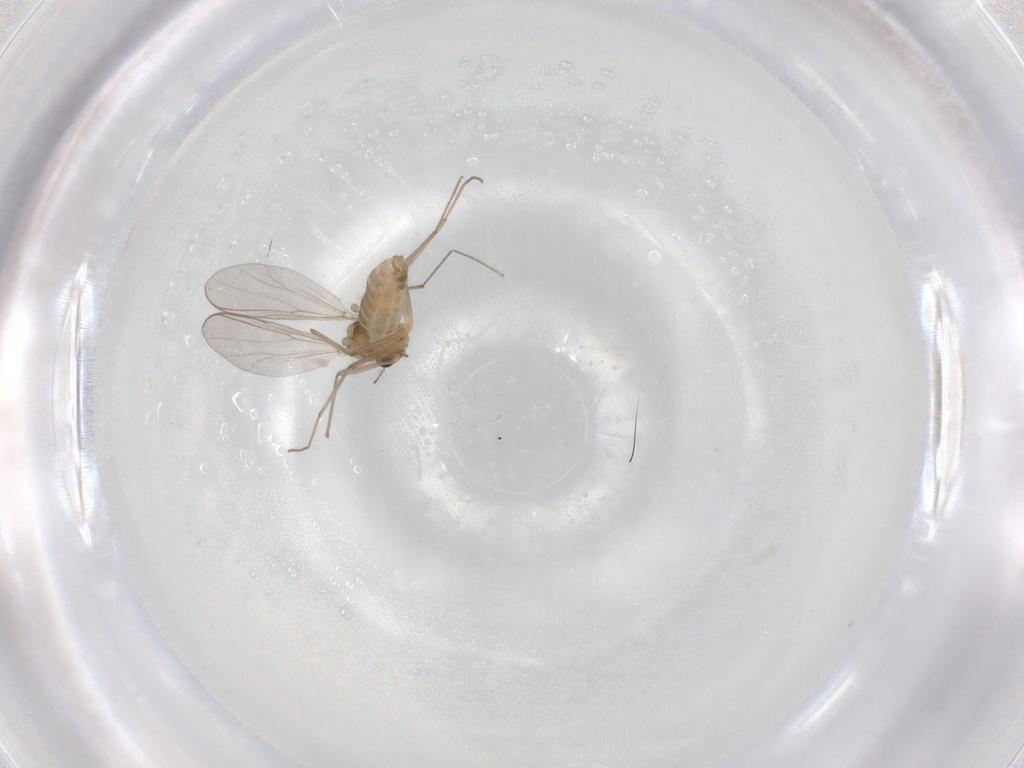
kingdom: Animalia
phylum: Arthropoda
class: Insecta
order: Diptera
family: Chironomidae
